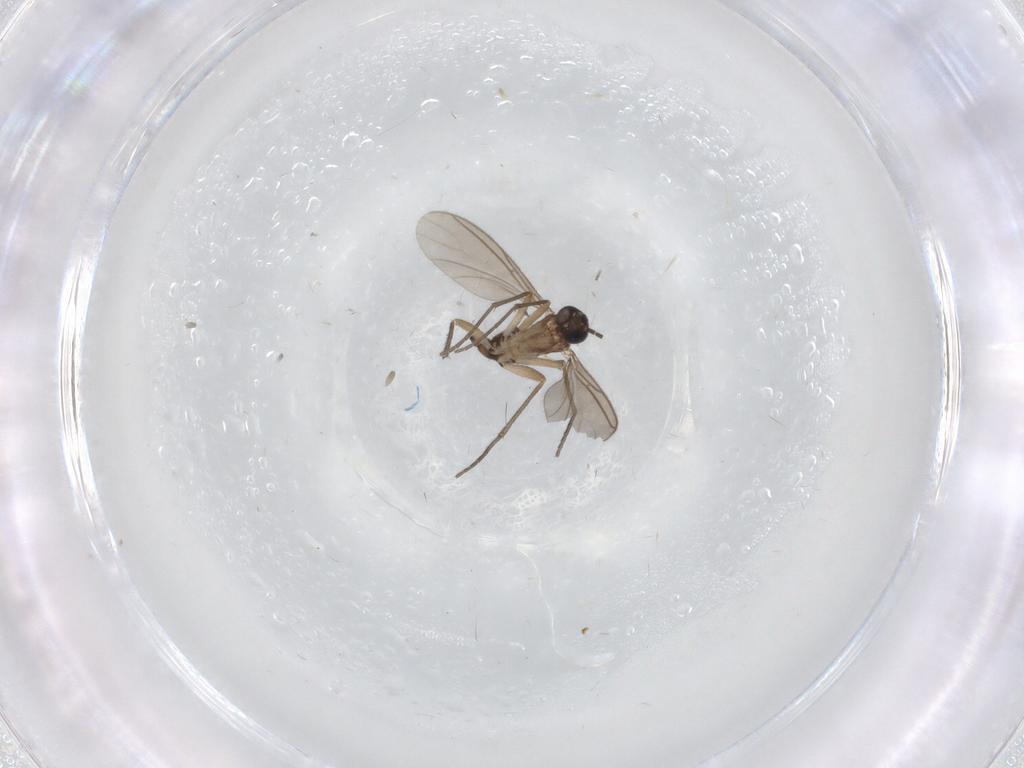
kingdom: Animalia
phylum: Arthropoda
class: Insecta
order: Diptera
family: Sciaridae
